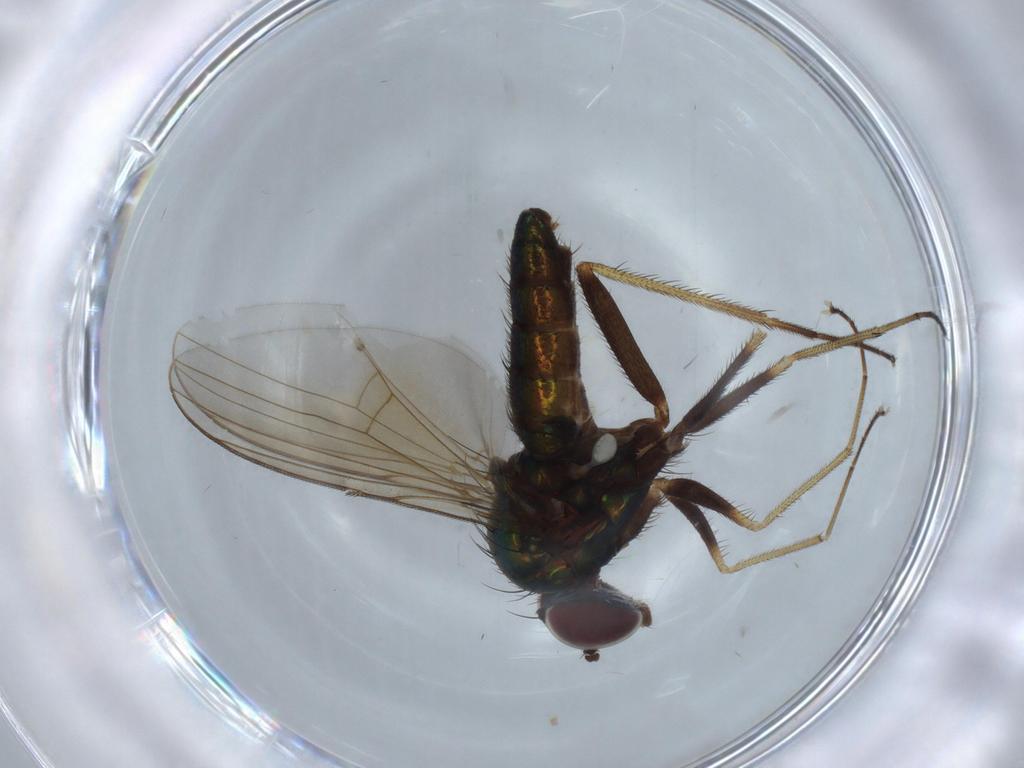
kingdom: Animalia
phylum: Arthropoda
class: Insecta
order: Diptera
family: Dolichopodidae
